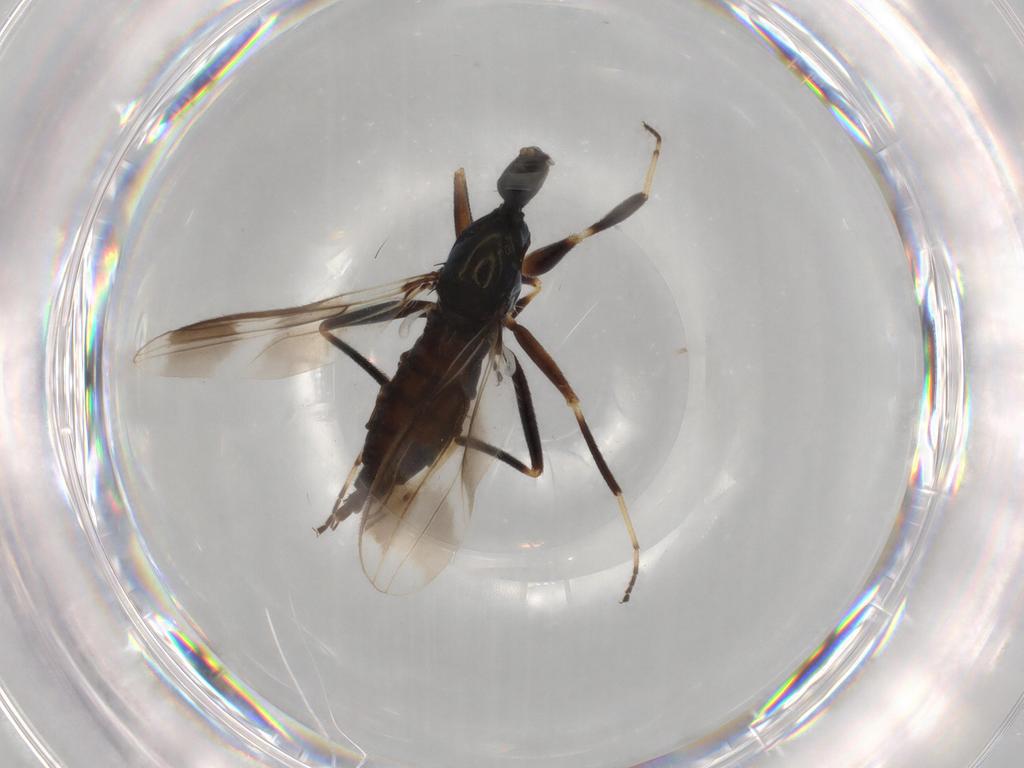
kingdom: Animalia
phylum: Arthropoda
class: Insecta
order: Diptera
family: Hybotidae
